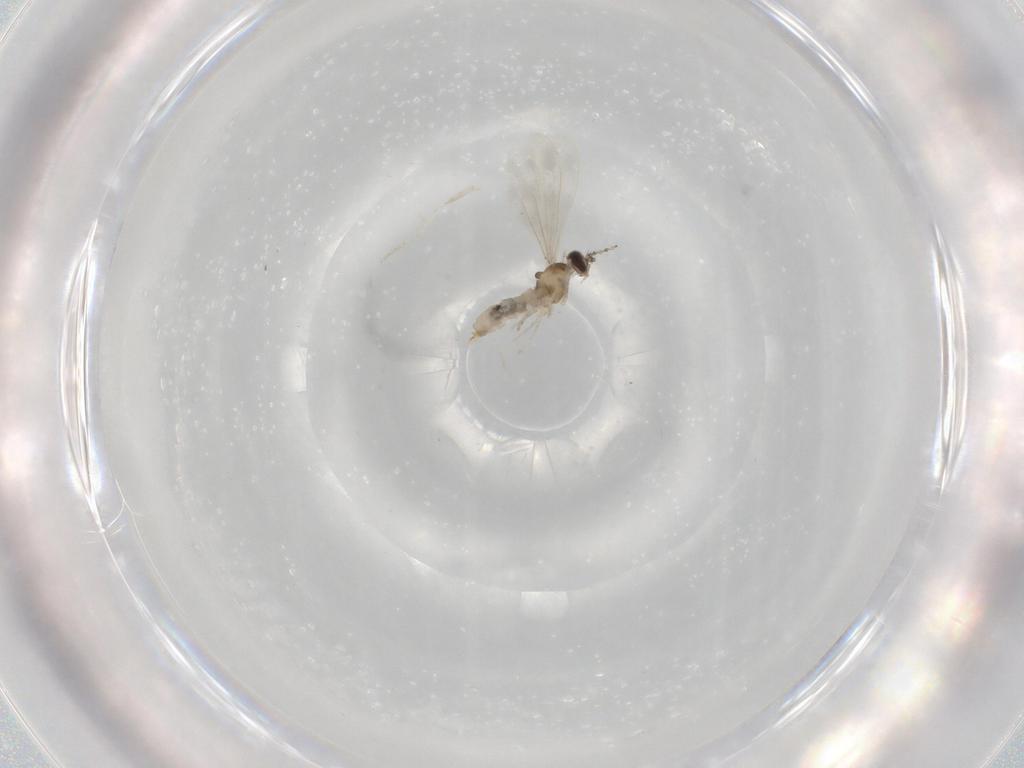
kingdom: Animalia
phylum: Arthropoda
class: Insecta
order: Diptera
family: Cecidomyiidae
